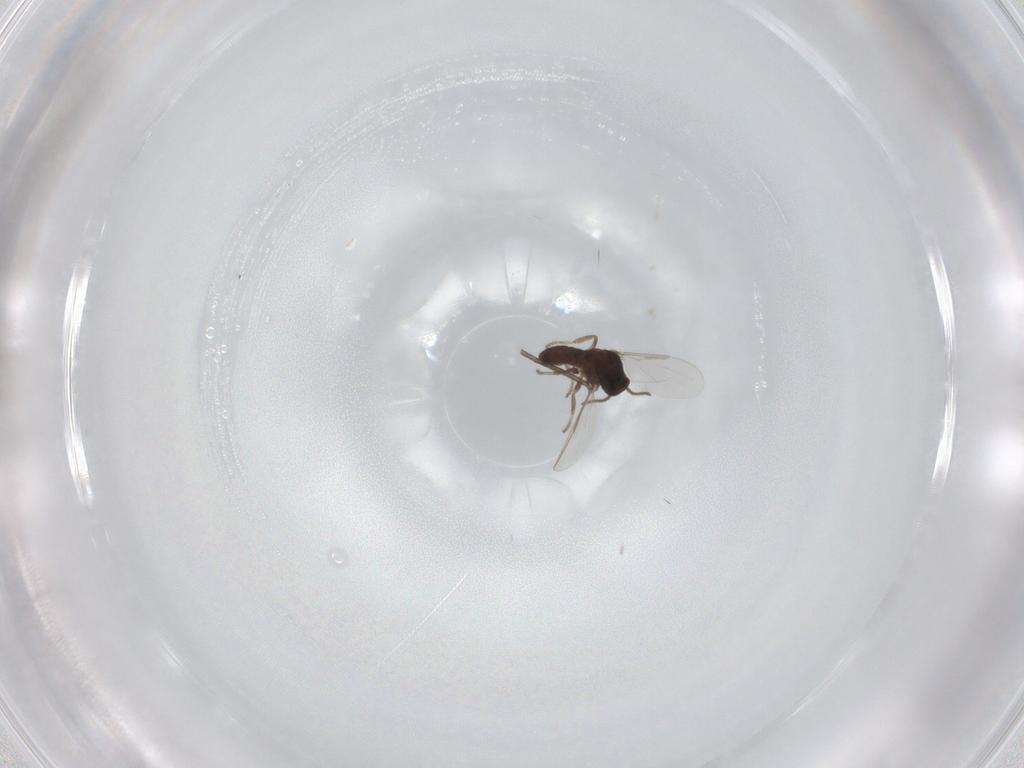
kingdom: Animalia
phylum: Arthropoda
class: Insecta
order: Diptera
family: Ceratopogonidae
